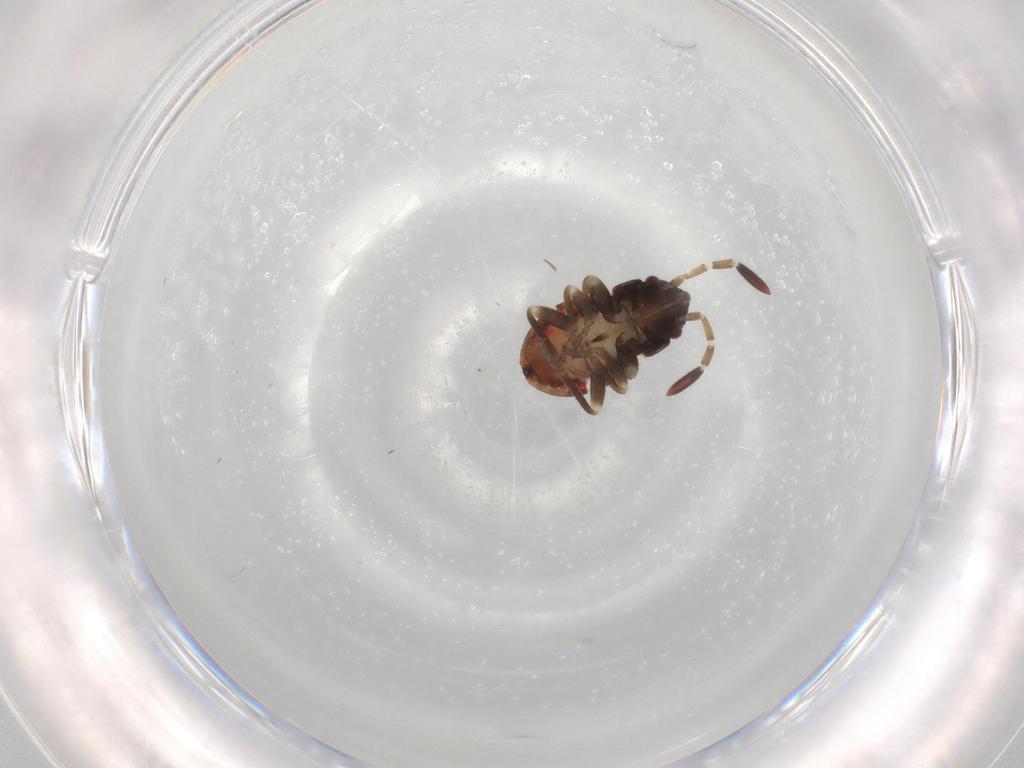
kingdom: Animalia
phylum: Arthropoda
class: Insecta
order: Hemiptera
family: Rhyparochromidae
